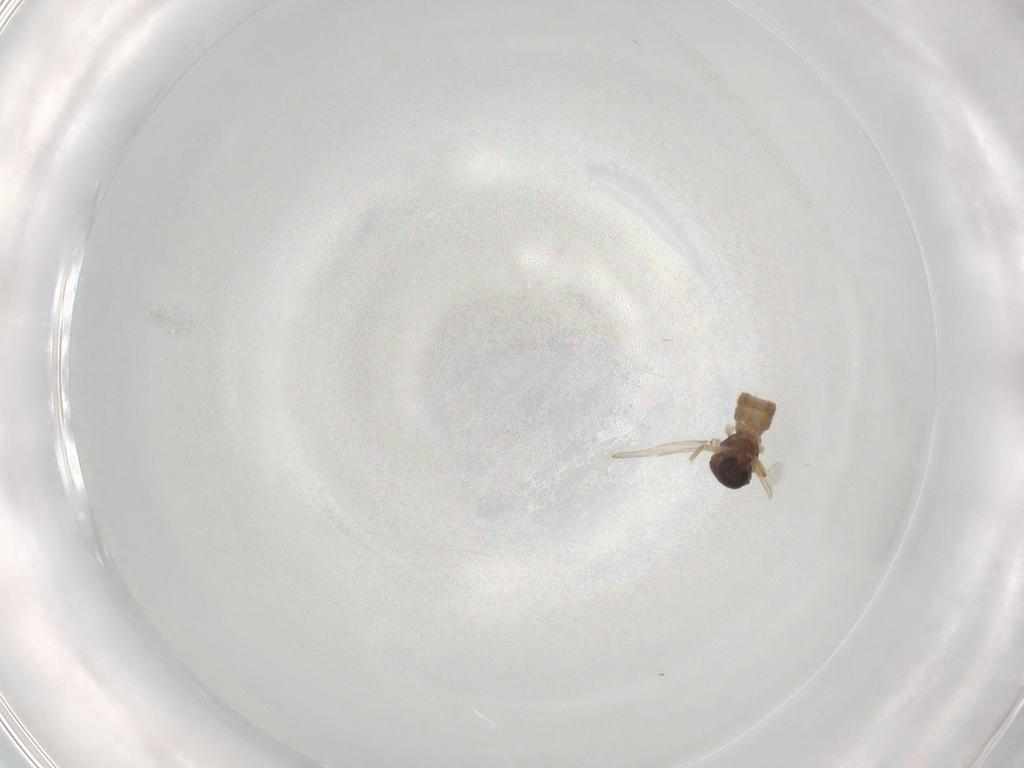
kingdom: Animalia
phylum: Arthropoda
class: Insecta
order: Diptera
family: Ceratopogonidae
